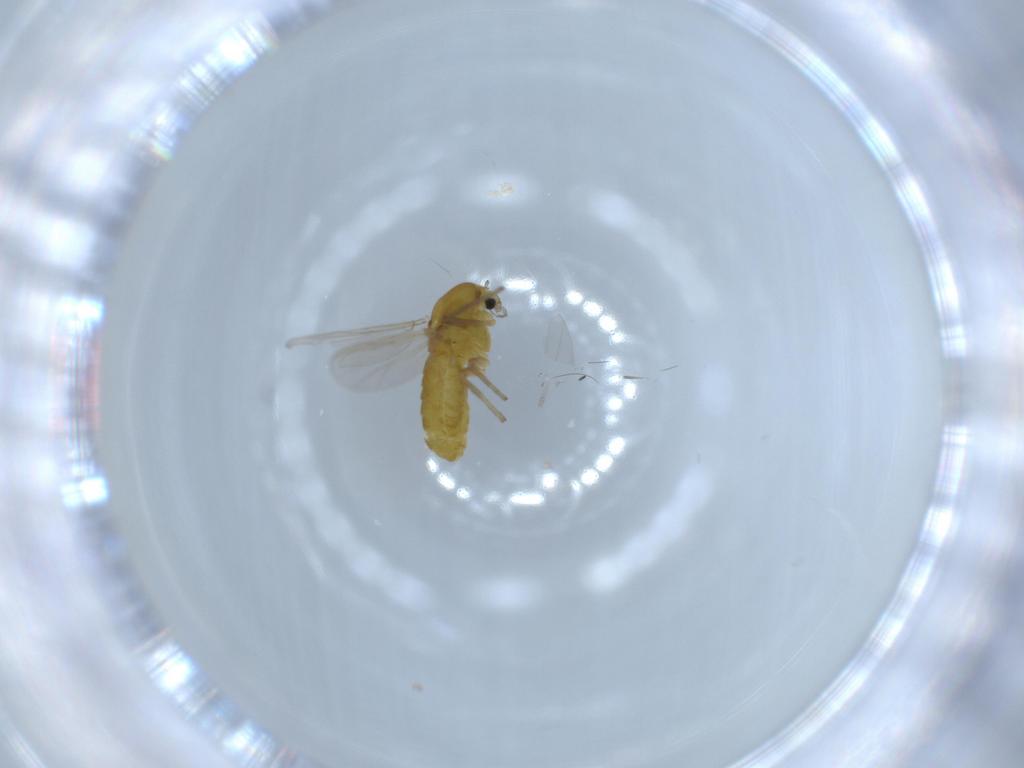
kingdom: Animalia
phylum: Arthropoda
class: Insecta
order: Diptera
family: Chironomidae
